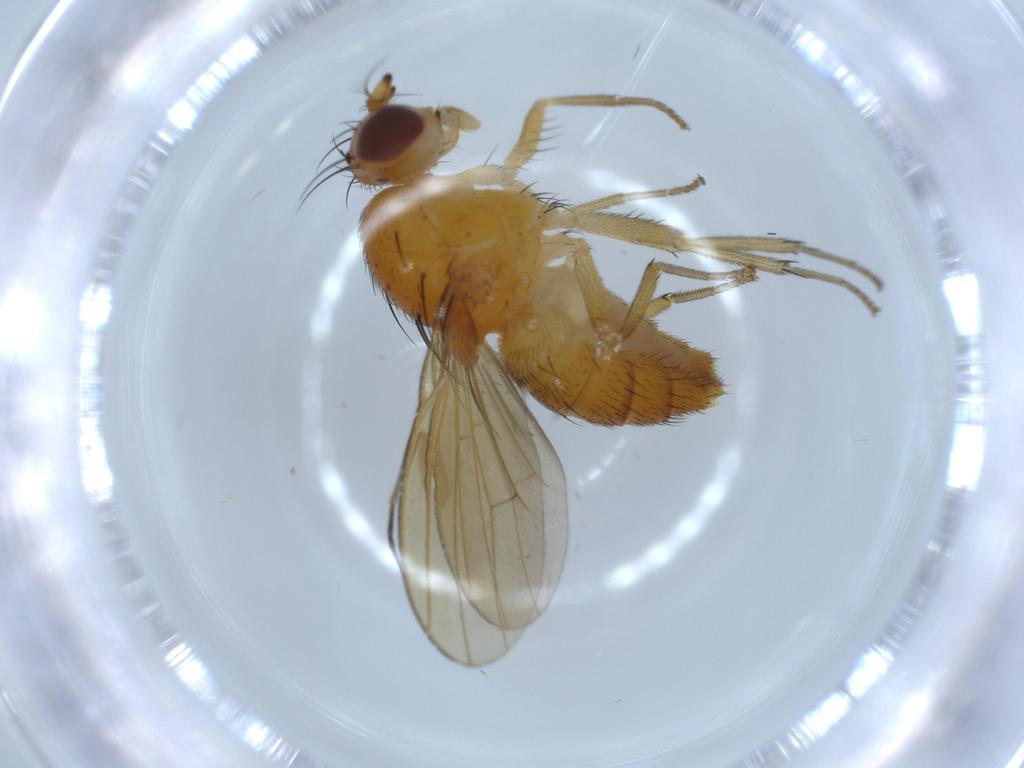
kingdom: Animalia
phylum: Arthropoda
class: Insecta
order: Diptera
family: Lauxaniidae
